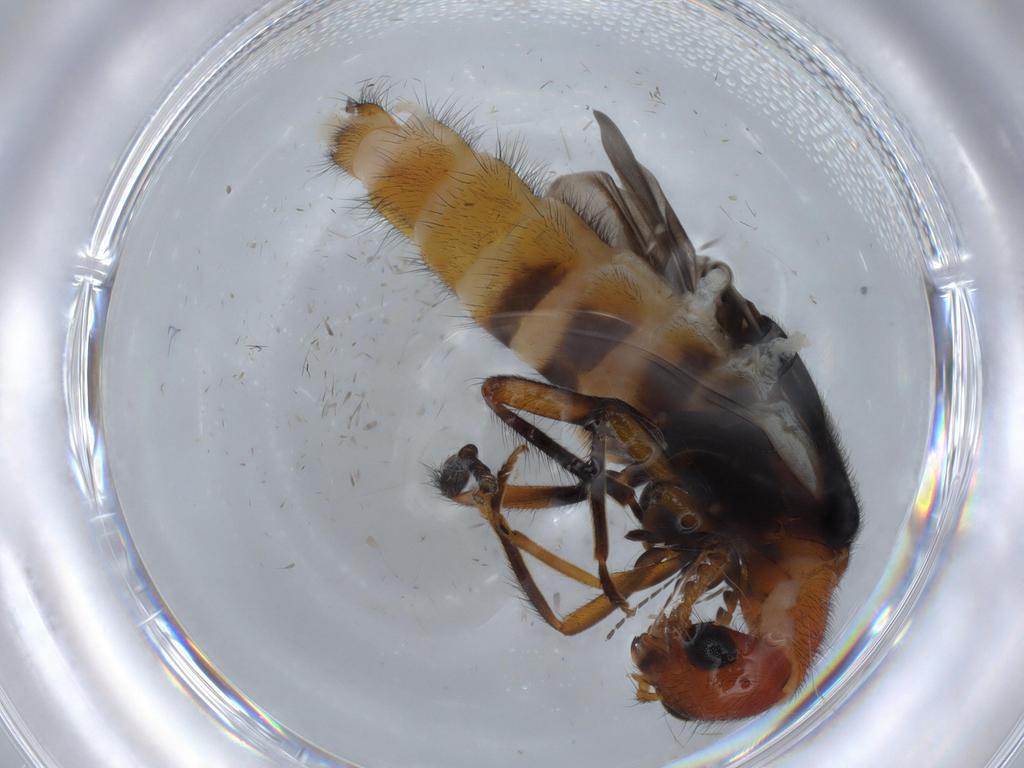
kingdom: Animalia
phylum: Arthropoda
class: Insecta
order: Coleoptera
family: Melyridae
